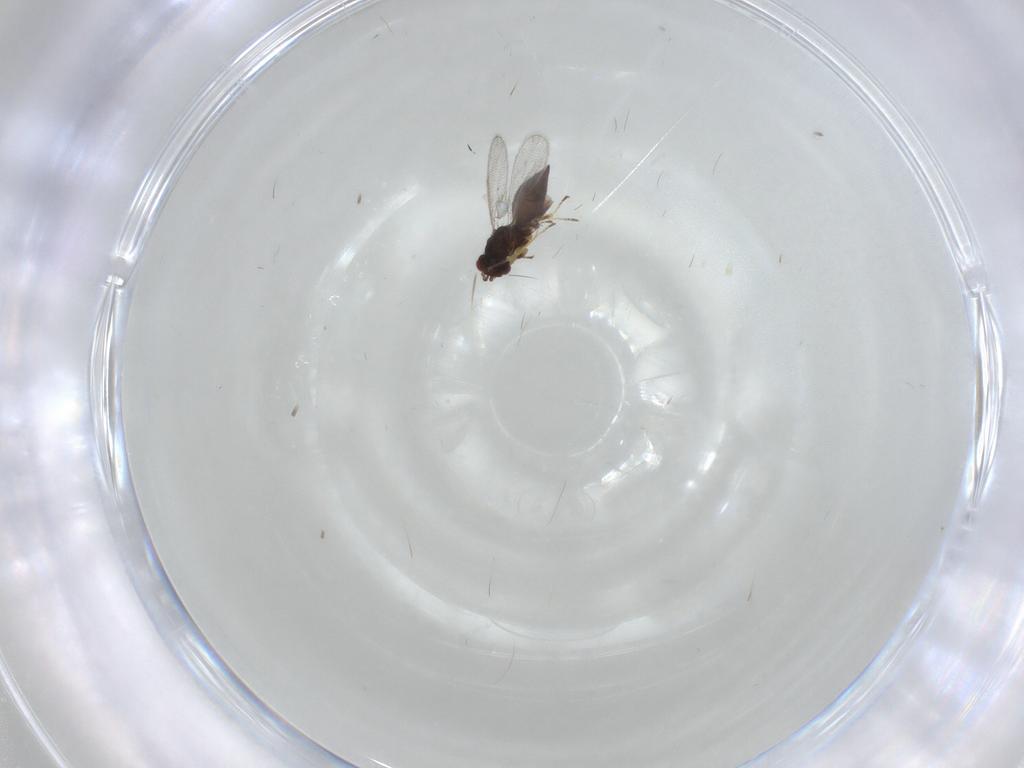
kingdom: Animalia
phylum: Arthropoda
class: Insecta
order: Hymenoptera
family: Eulophidae
